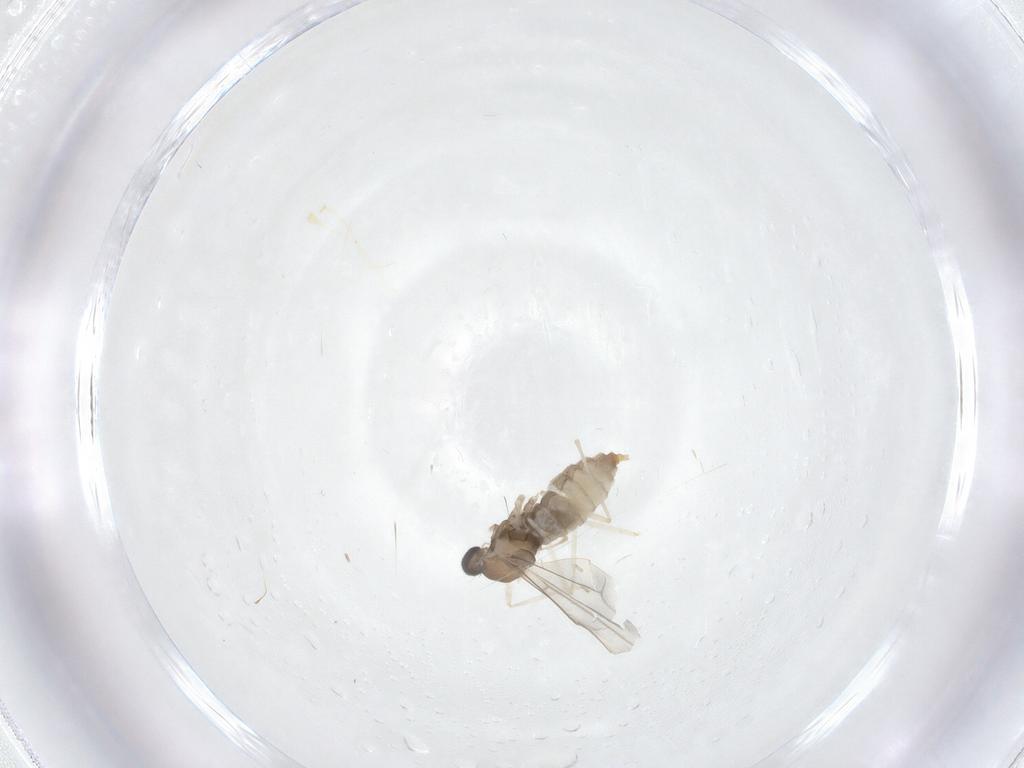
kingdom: Animalia
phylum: Arthropoda
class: Insecta
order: Diptera
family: Cecidomyiidae
